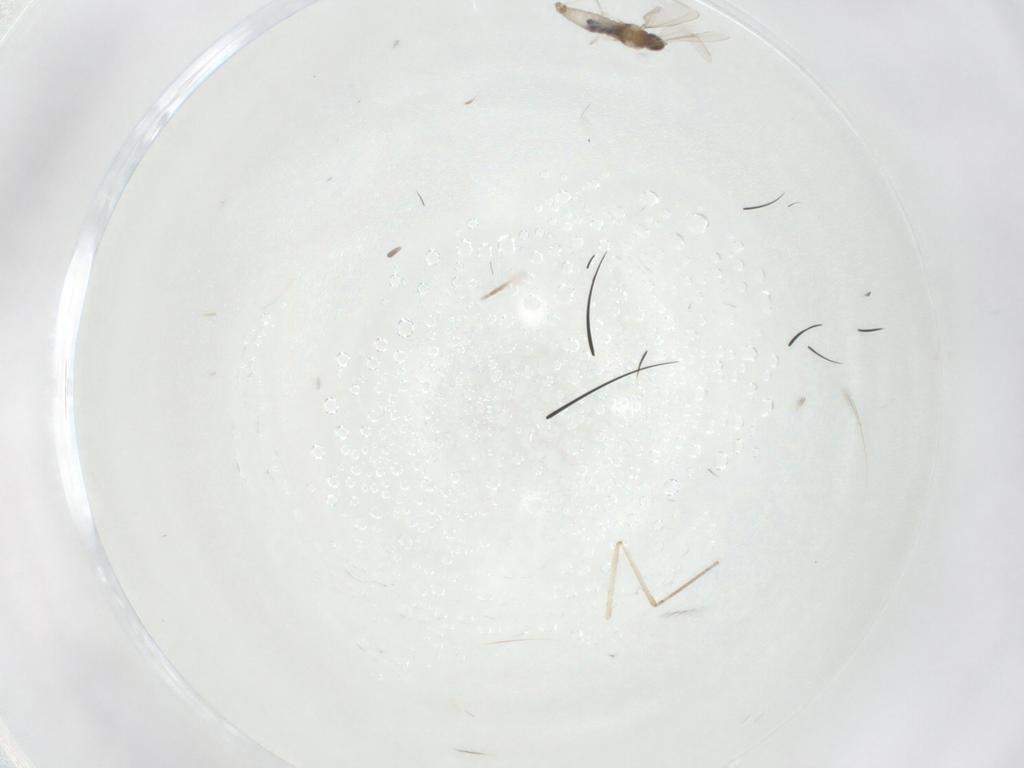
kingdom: Animalia
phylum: Arthropoda
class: Insecta
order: Diptera
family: Cecidomyiidae
